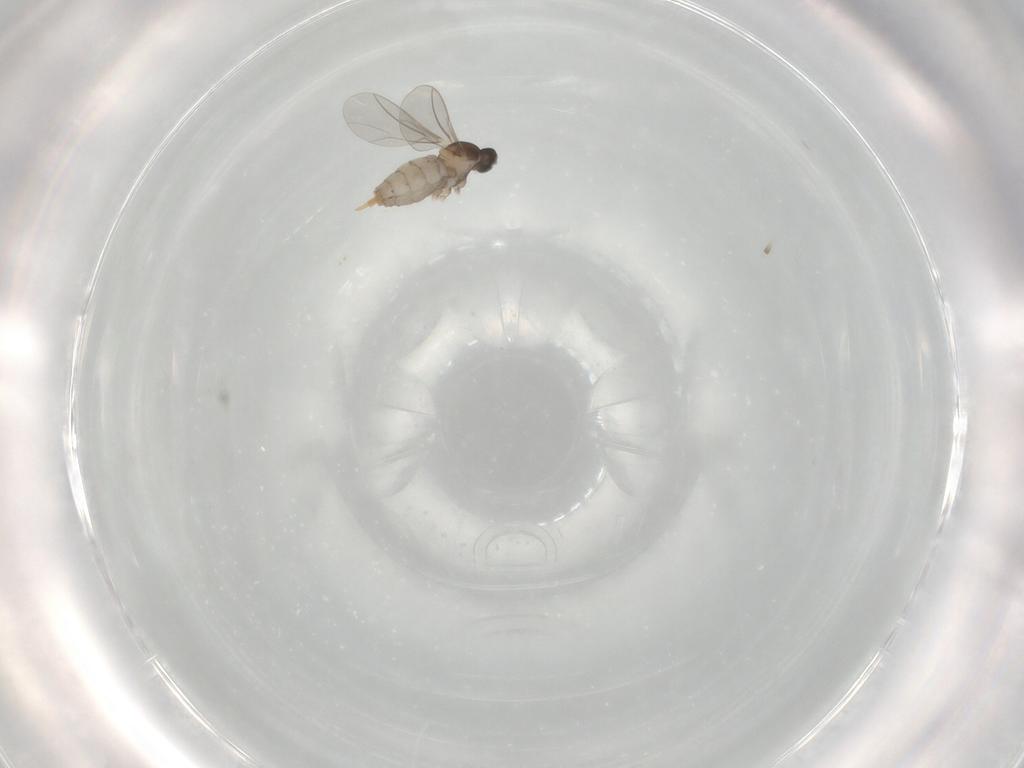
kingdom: Animalia
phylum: Arthropoda
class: Insecta
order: Diptera
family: Cecidomyiidae
